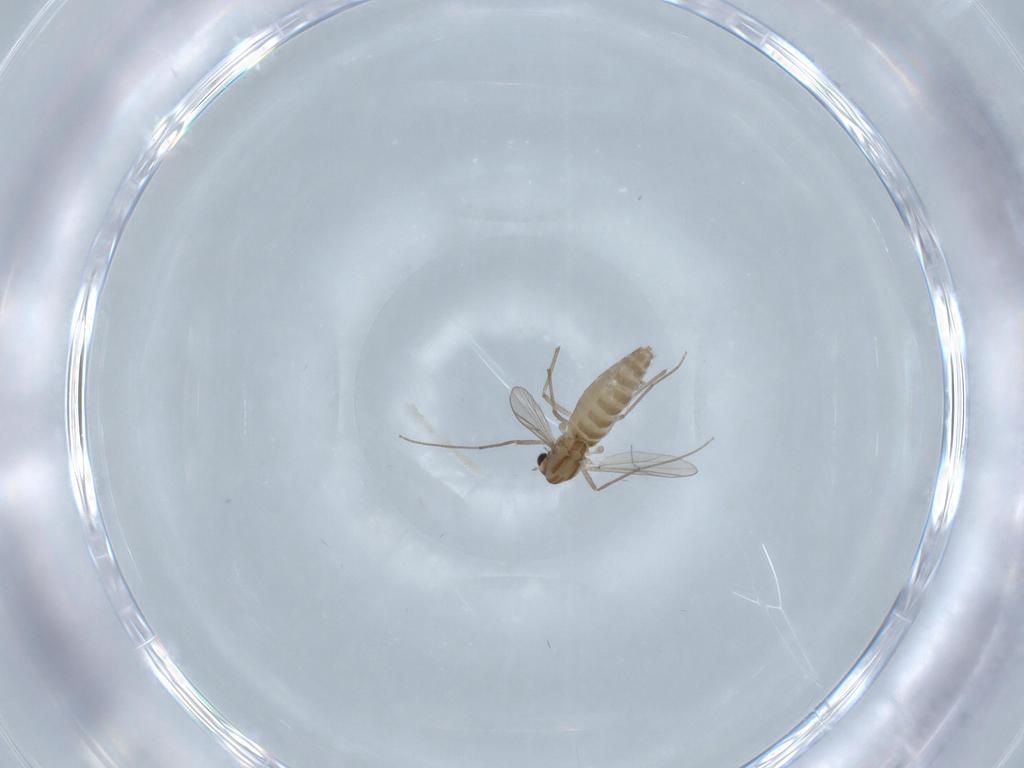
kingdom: Animalia
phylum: Arthropoda
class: Insecta
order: Diptera
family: Chironomidae
